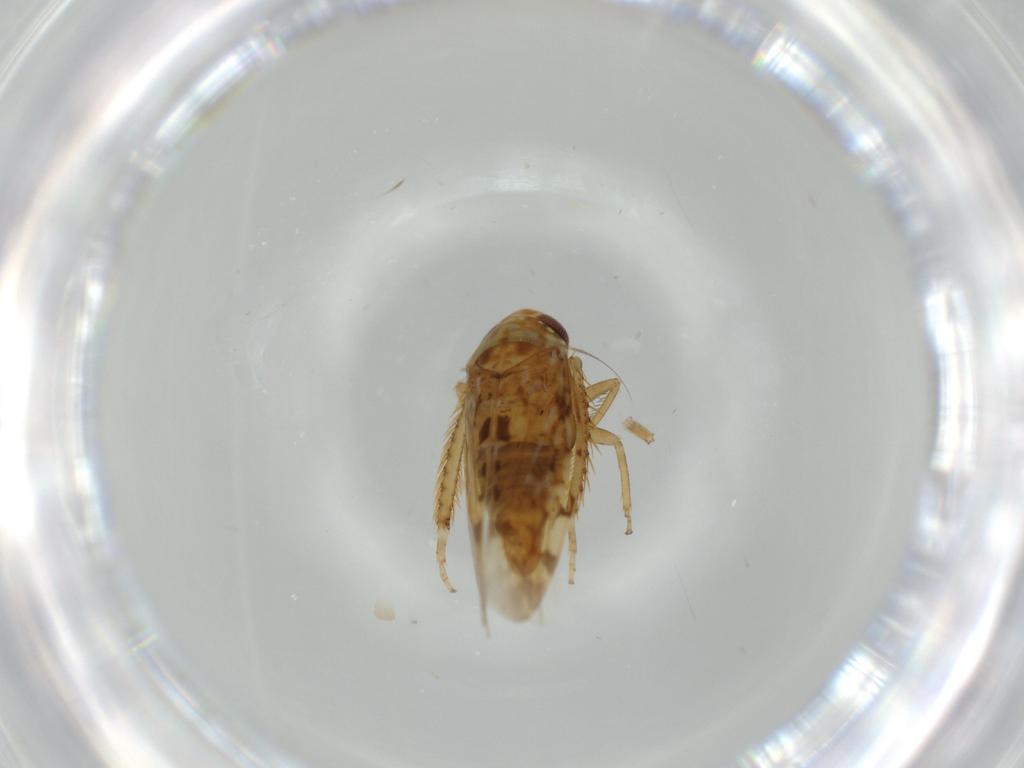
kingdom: Animalia
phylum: Arthropoda
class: Insecta
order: Hemiptera
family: Cicadellidae
